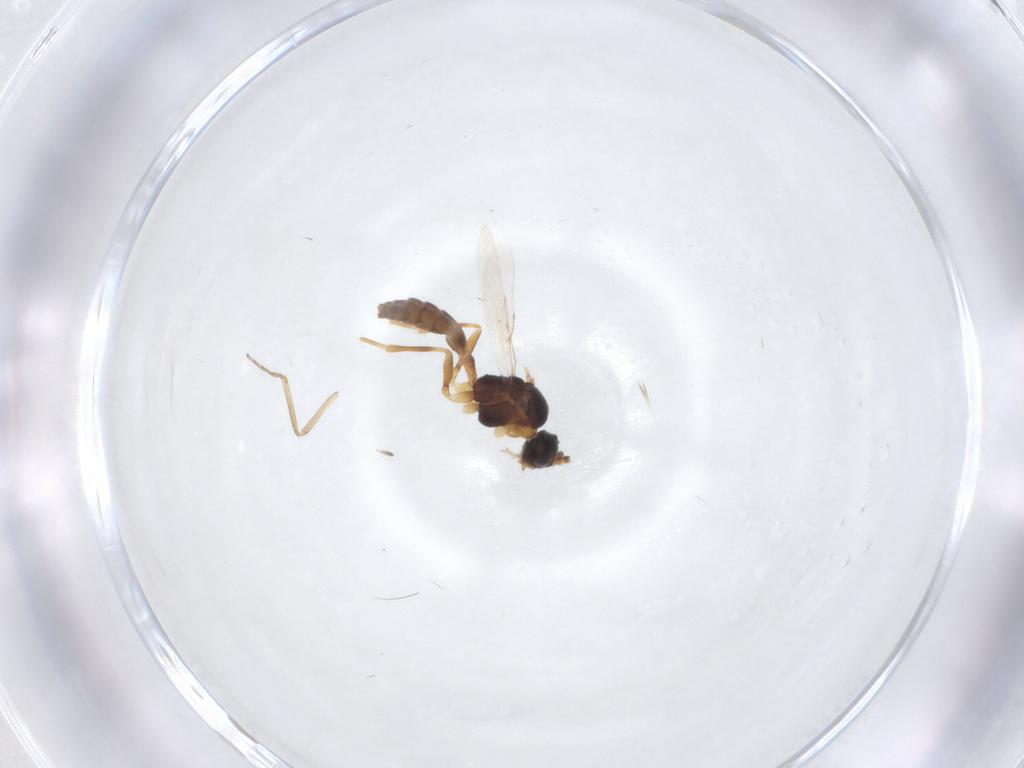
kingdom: Animalia
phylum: Arthropoda
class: Insecta
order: Hymenoptera
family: Braconidae
